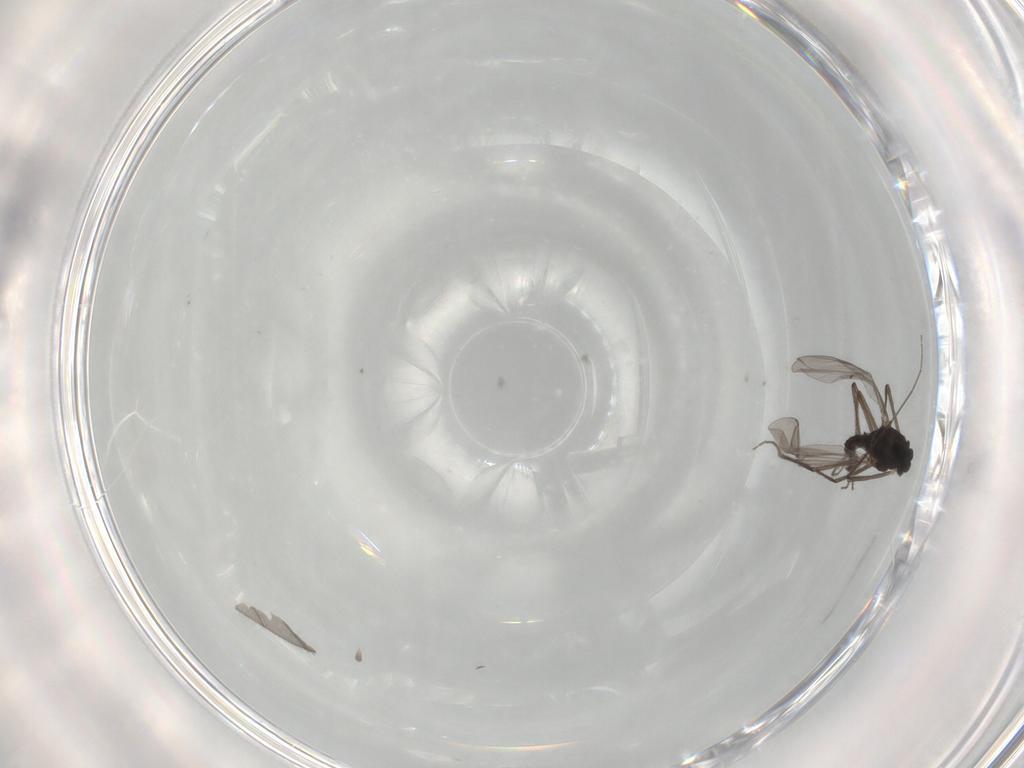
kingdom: Animalia
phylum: Arthropoda
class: Insecta
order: Diptera
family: Chironomidae
